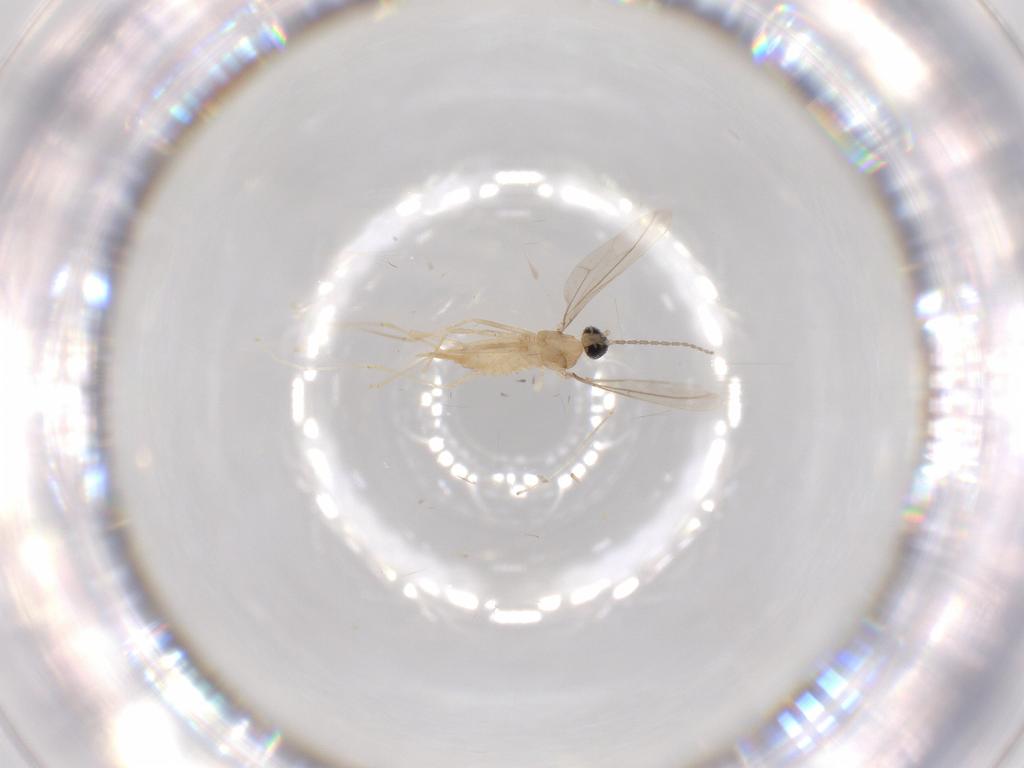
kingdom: Animalia
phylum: Arthropoda
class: Insecta
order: Diptera
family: Cecidomyiidae
